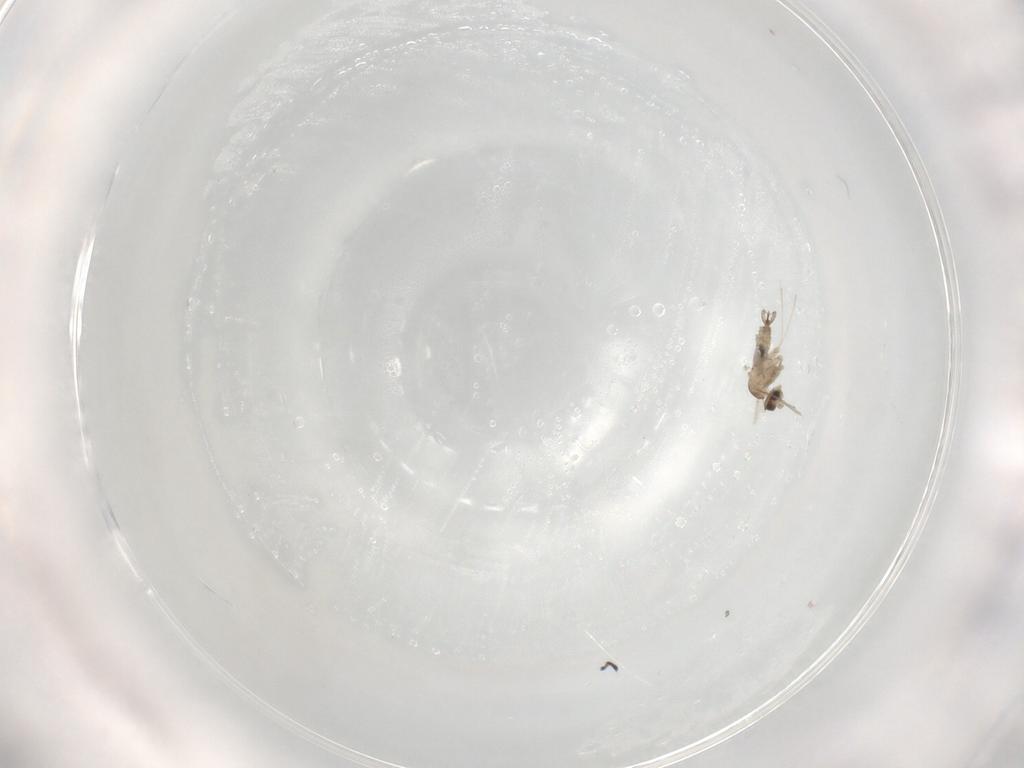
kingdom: Animalia
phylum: Arthropoda
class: Insecta
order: Diptera
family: Cecidomyiidae
